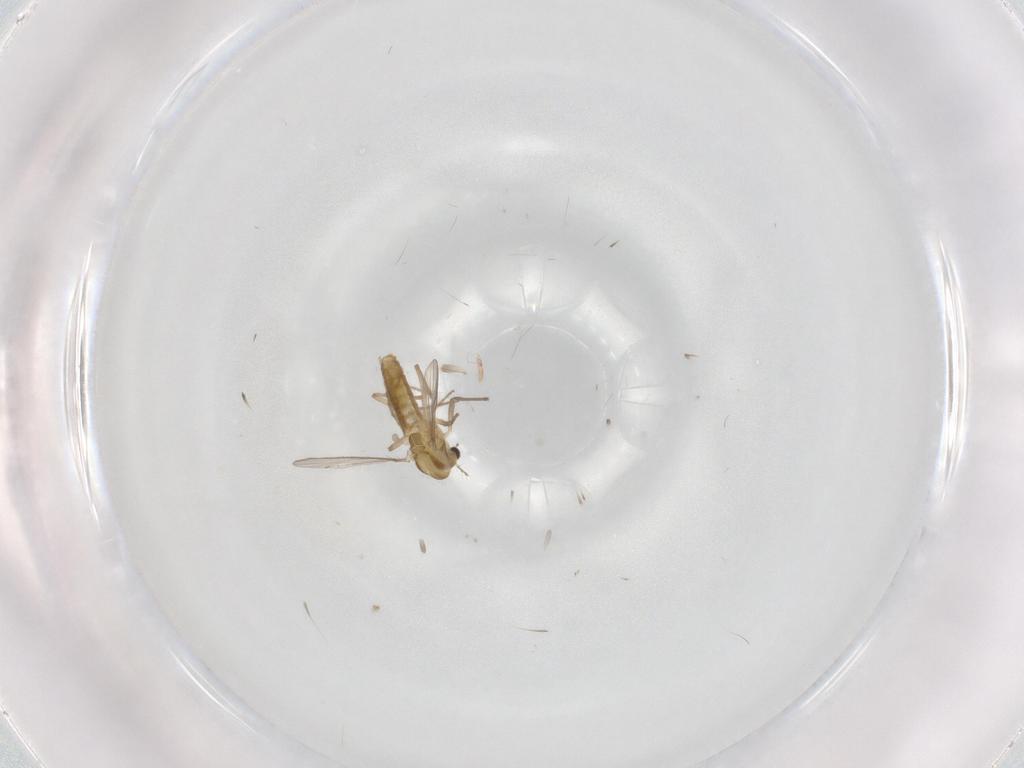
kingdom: Animalia
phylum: Arthropoda
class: Insecta
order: Diptera
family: Chironomidae
